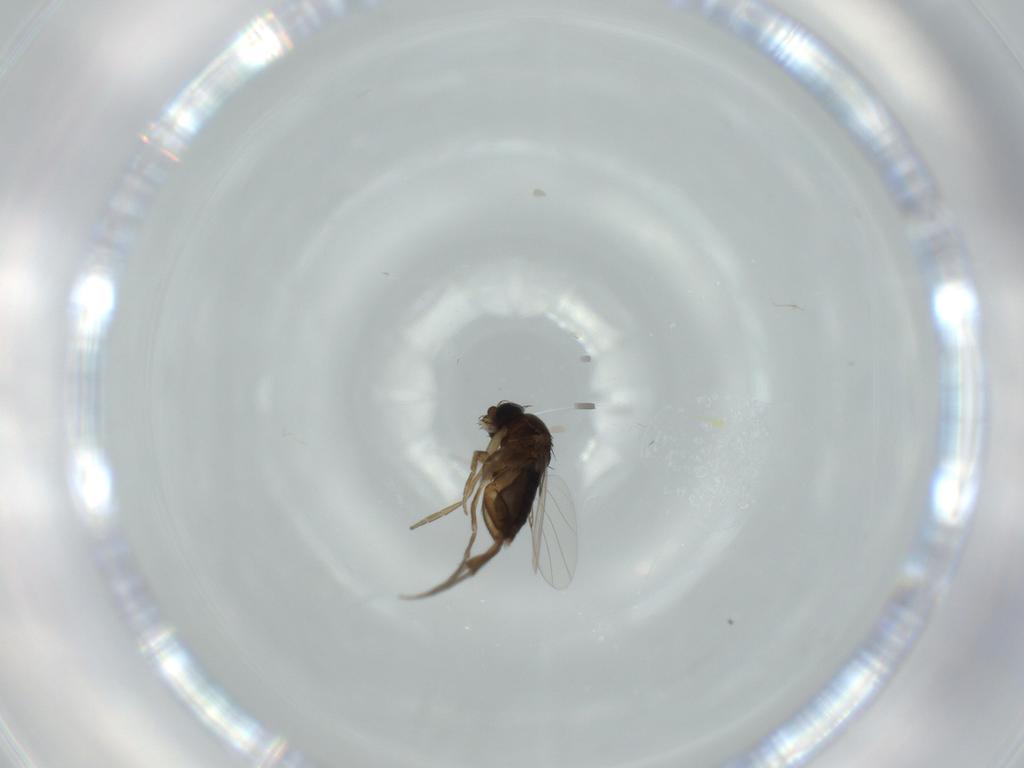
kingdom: Animalia
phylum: Arthropoda
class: Insecta
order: Diptera
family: Phoridae
